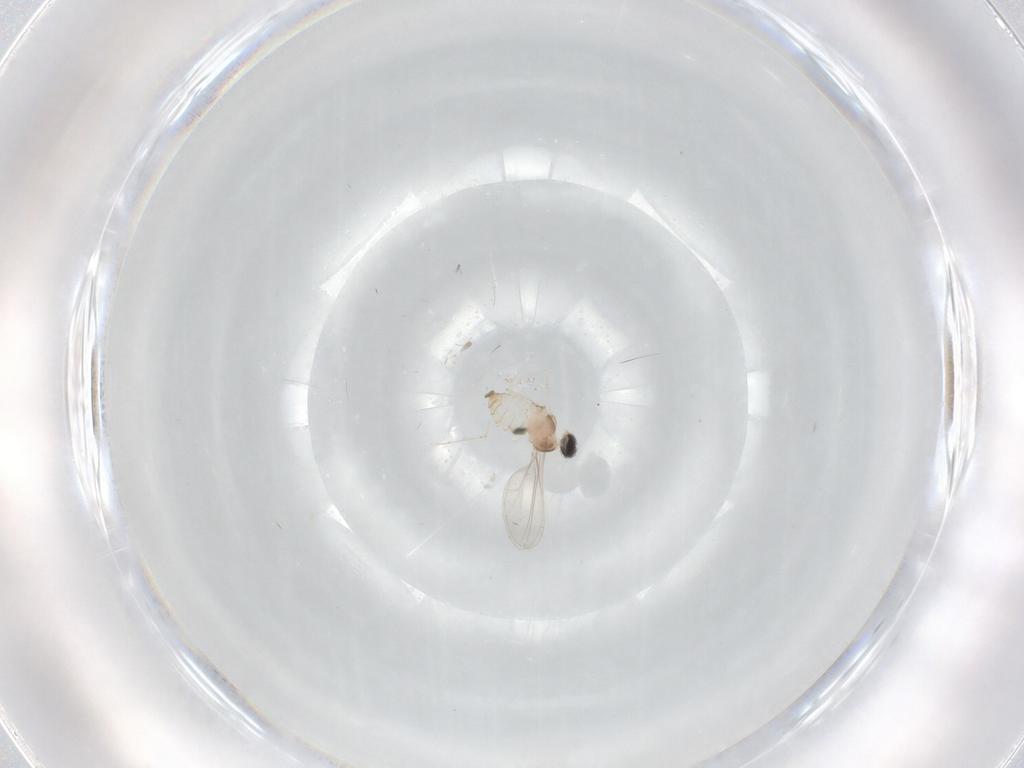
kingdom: Animalia
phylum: Arthropoda
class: Insecta
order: Diptera
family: Cecidomyiidae
